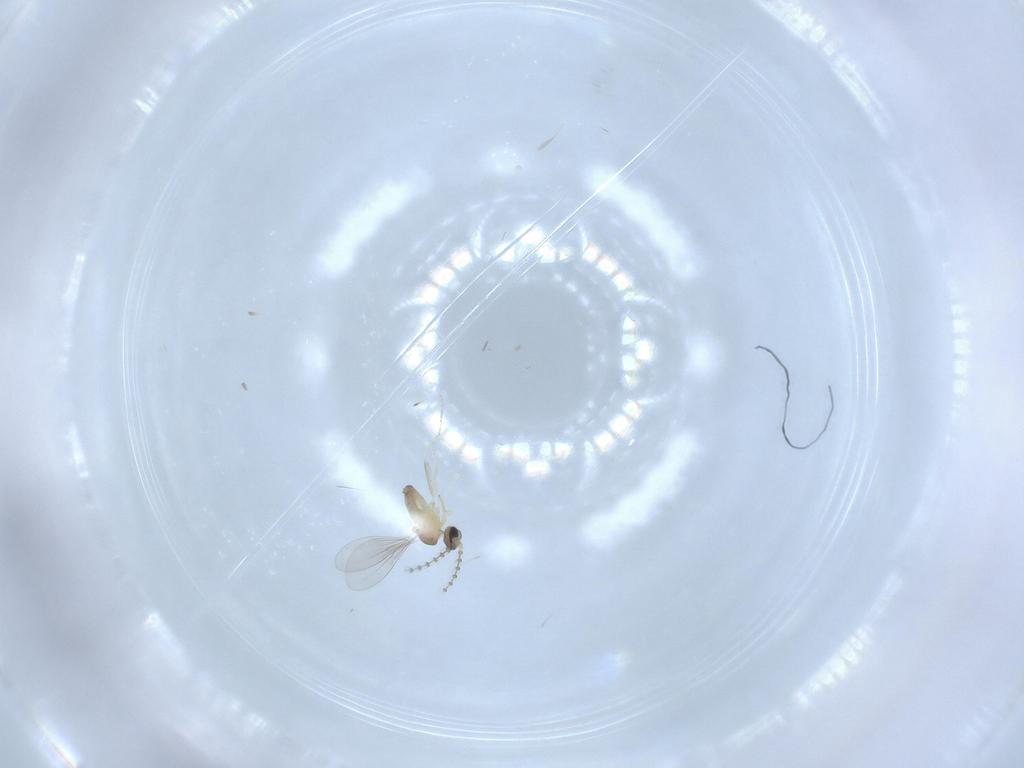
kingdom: Animalia
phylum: Arthropoda
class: Insecta
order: Diptera
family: Cecidomyiidae
